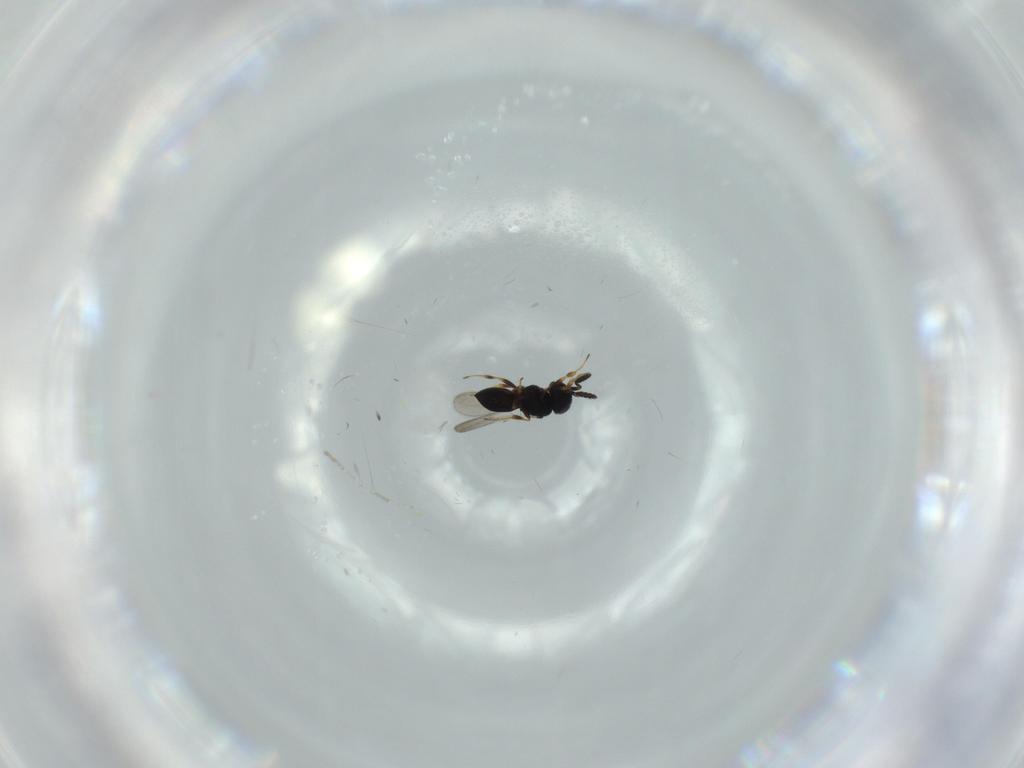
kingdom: Animalia
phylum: Arthropoda
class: Insecta
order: Hymenoptera
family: Scelionidae
